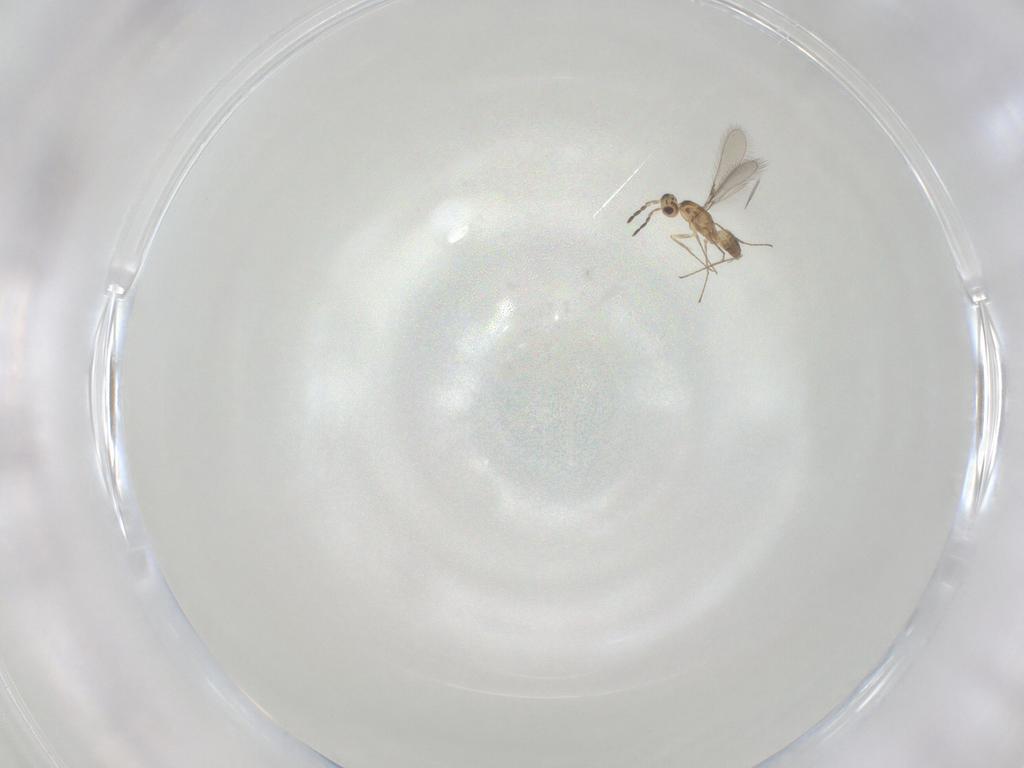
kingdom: Animalia
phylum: Arthropoda
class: Insecta
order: Hymenoptera
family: Mymaridae
